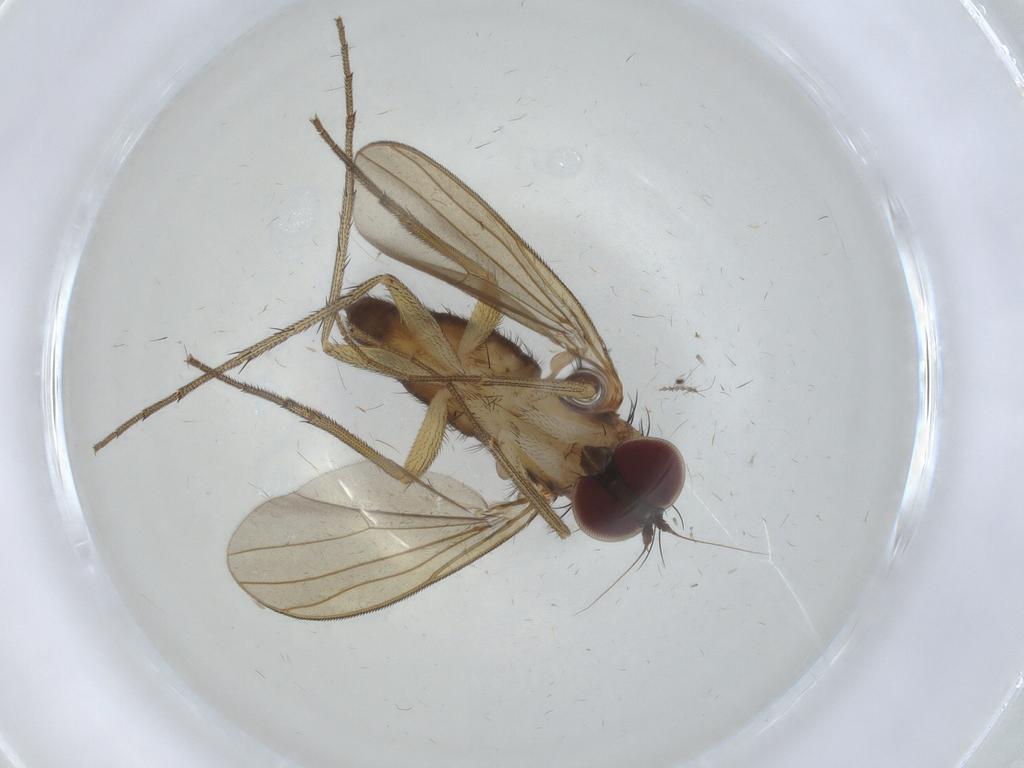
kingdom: Animalia
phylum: Arthropoda
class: Insecta
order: Diptera
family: Dolichopodidae
